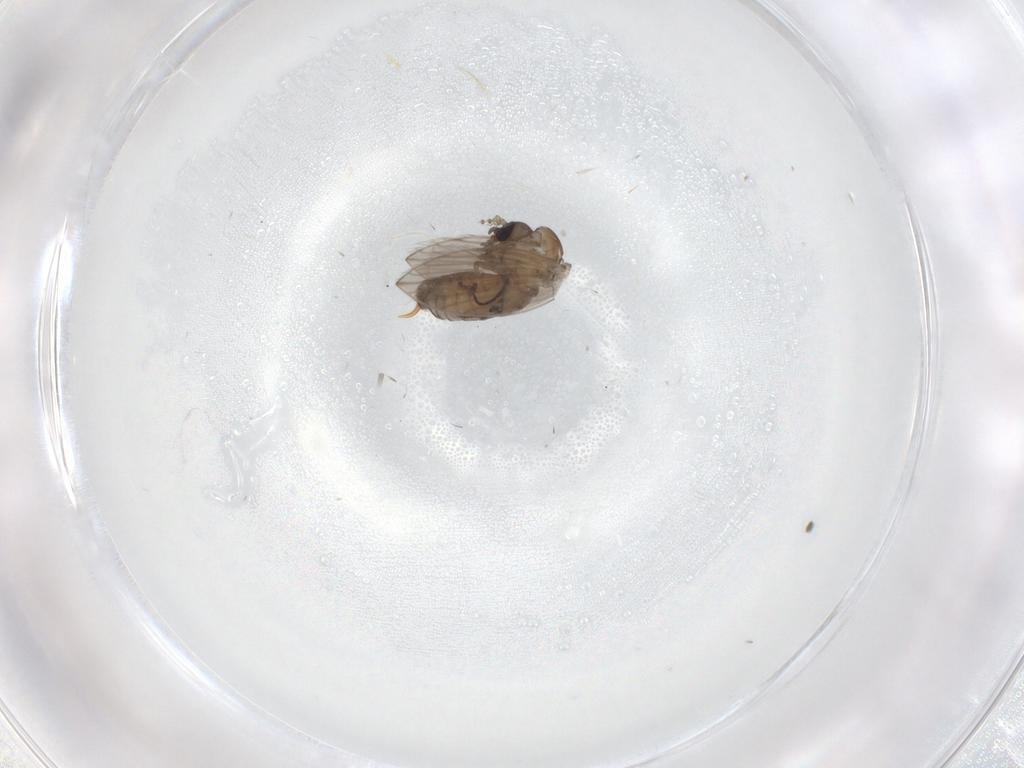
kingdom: Animalia
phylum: Arthropoda
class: Insecta
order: Diptera
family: Psychodidae
